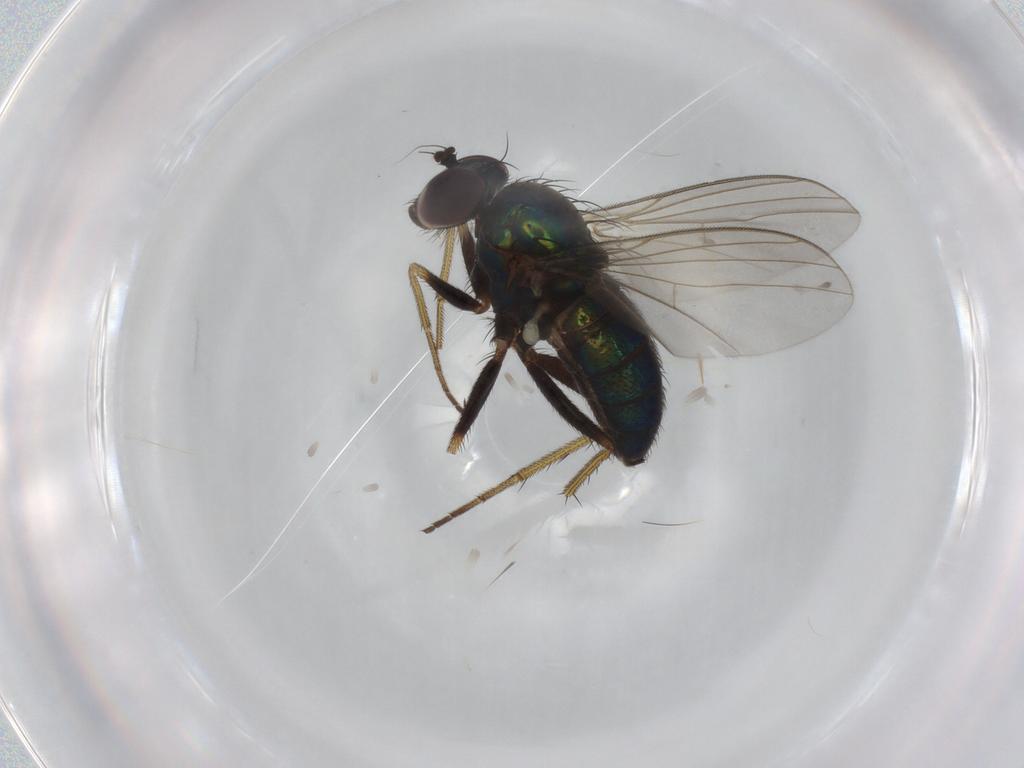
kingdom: Animalia
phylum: Arthropoda
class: Insecta
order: Diptera
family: Dolichopodidae
